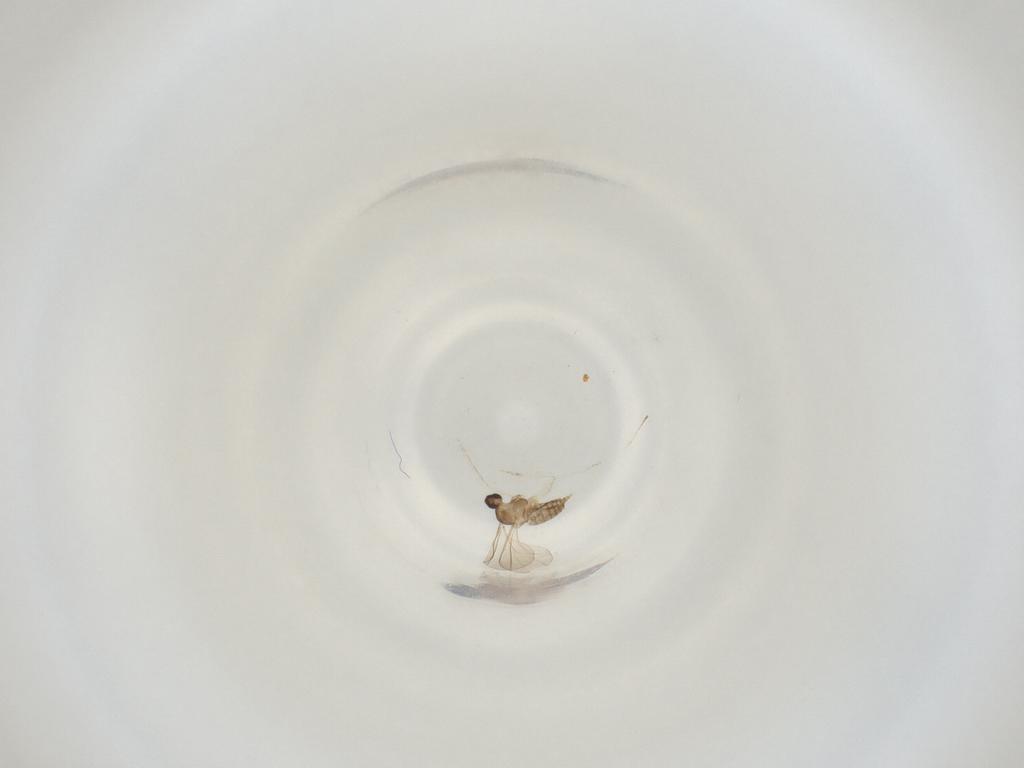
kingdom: Animalia
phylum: Arthropoda
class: Insecta
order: Diptera
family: Cecidomyiidae
